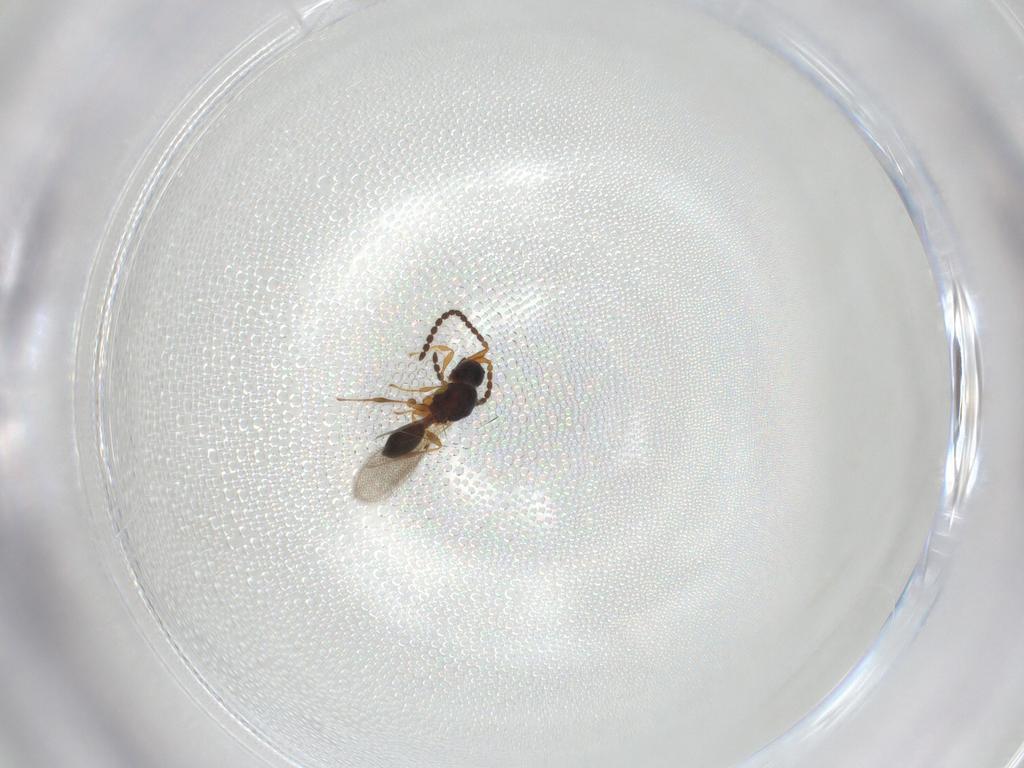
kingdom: Animalia
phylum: Arthropoda
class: Insecta
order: Hymenoptera
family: Diapriidae
